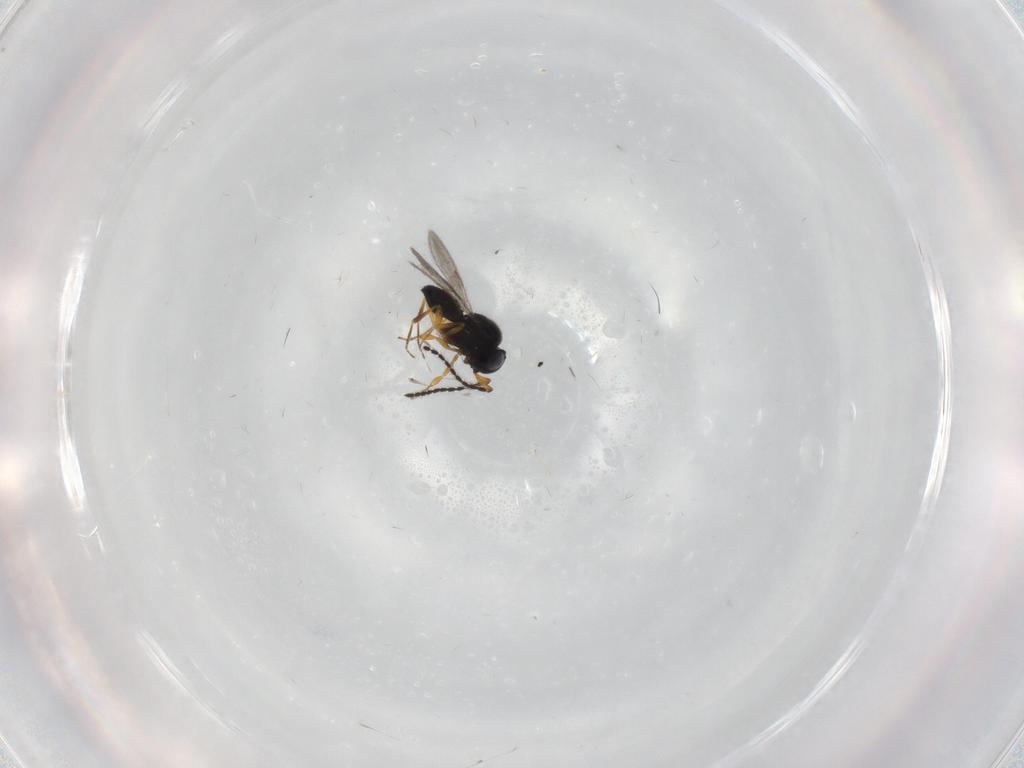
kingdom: Animalia
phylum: Arthropoda
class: Insecta
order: Hymenoptera
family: Scelionidae
